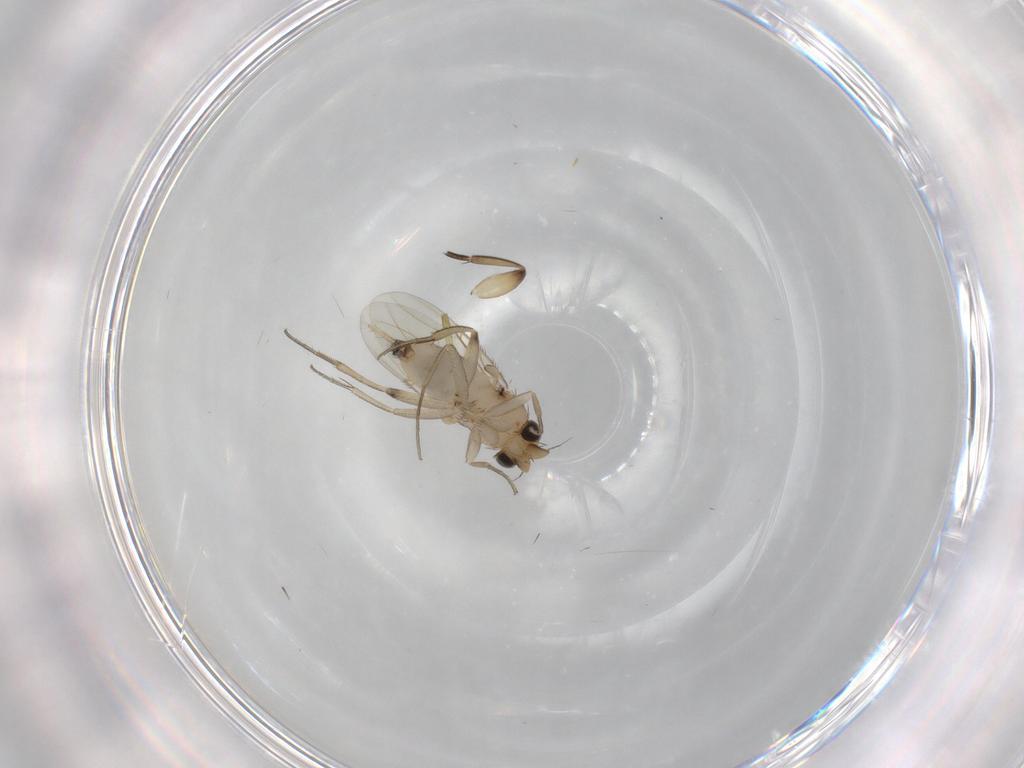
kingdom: Animalia
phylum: Arthropoda
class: Insecta
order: Diptera
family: Phoridae
